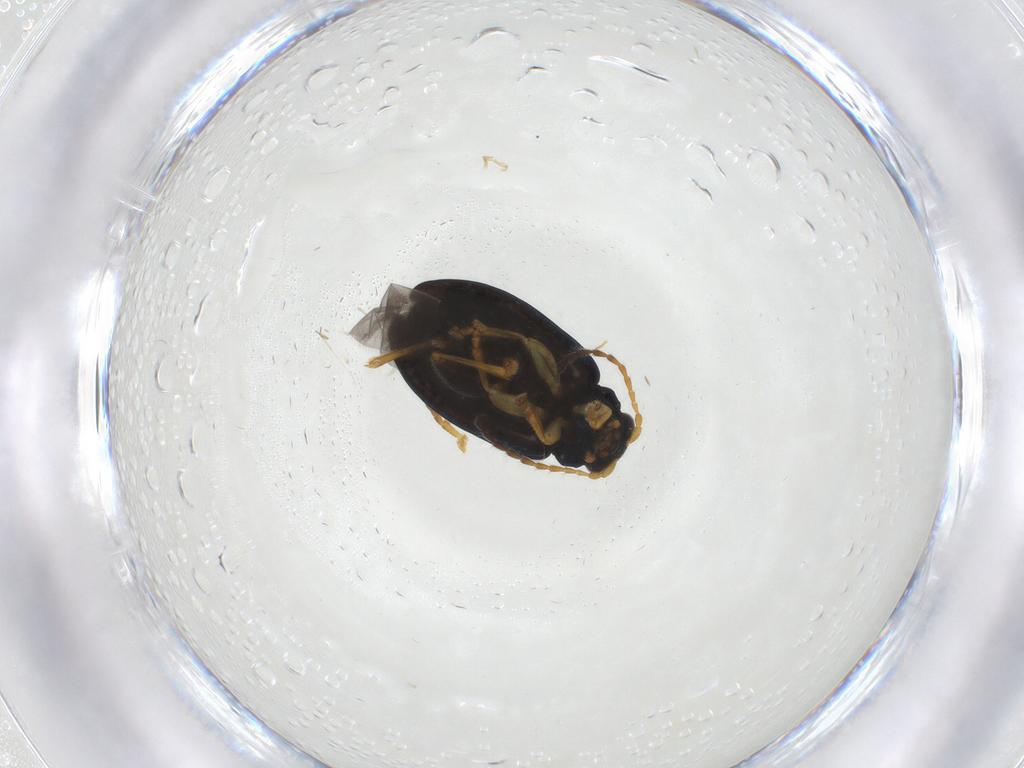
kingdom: Animalia
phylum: Arthropoda
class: Insecta
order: Coleoptera
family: Chrysomelidae
